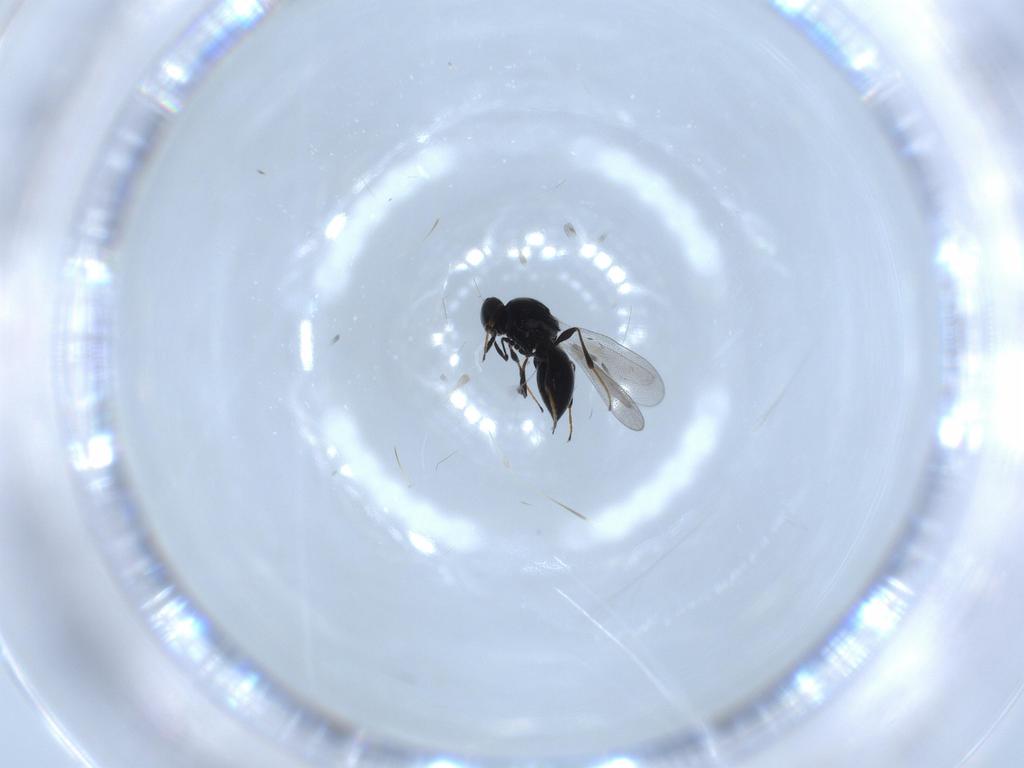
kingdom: Animalia
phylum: Arthropoda
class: Insecta
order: Hymenoptera
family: Platygastridae
